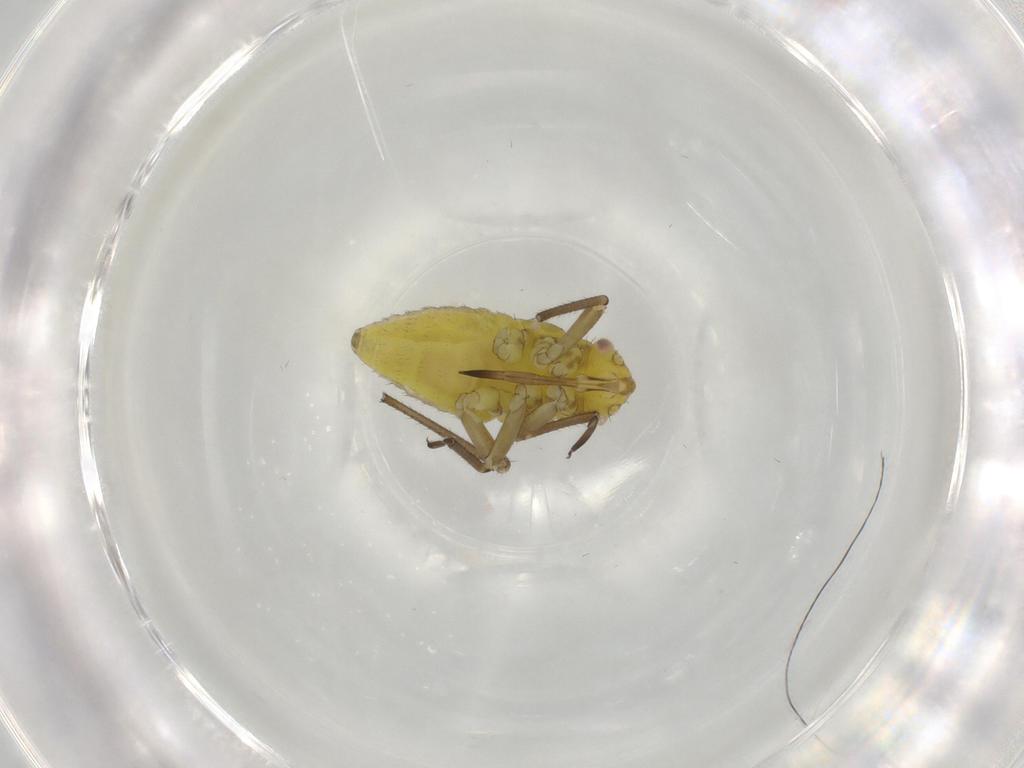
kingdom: Animalia
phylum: Arthropoda
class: Insecta
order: Hemiptera
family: Miridae
